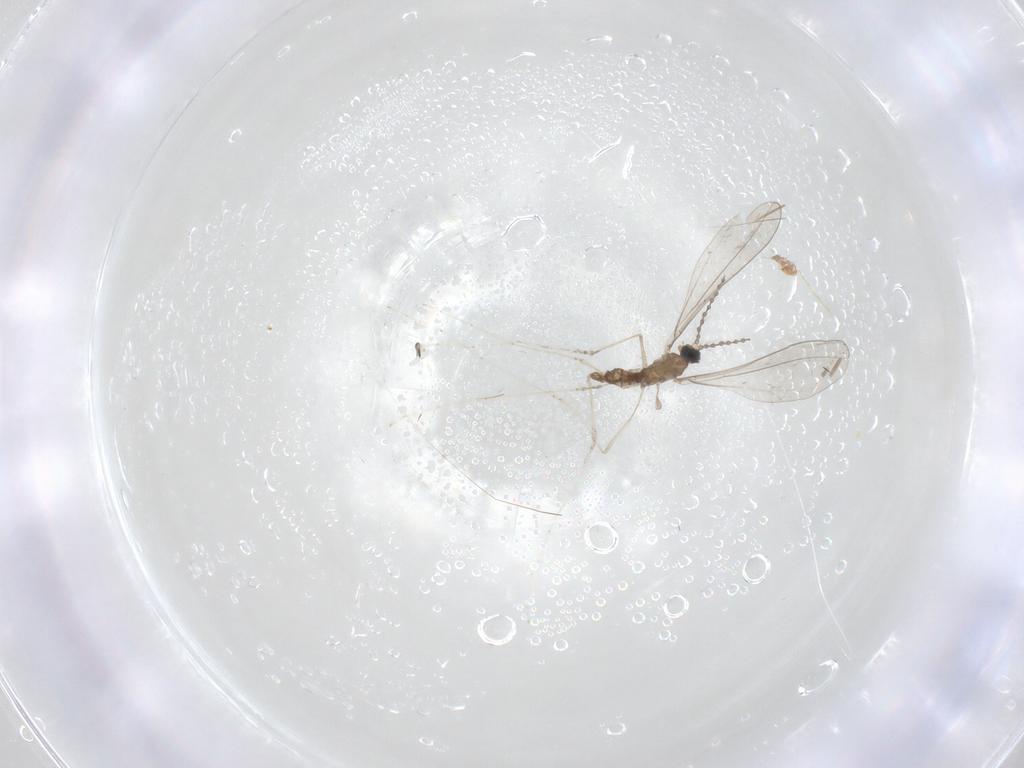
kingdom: Animalia
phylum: Arthropoda
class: Insecta
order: Diptera
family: Cecidomyiidae
